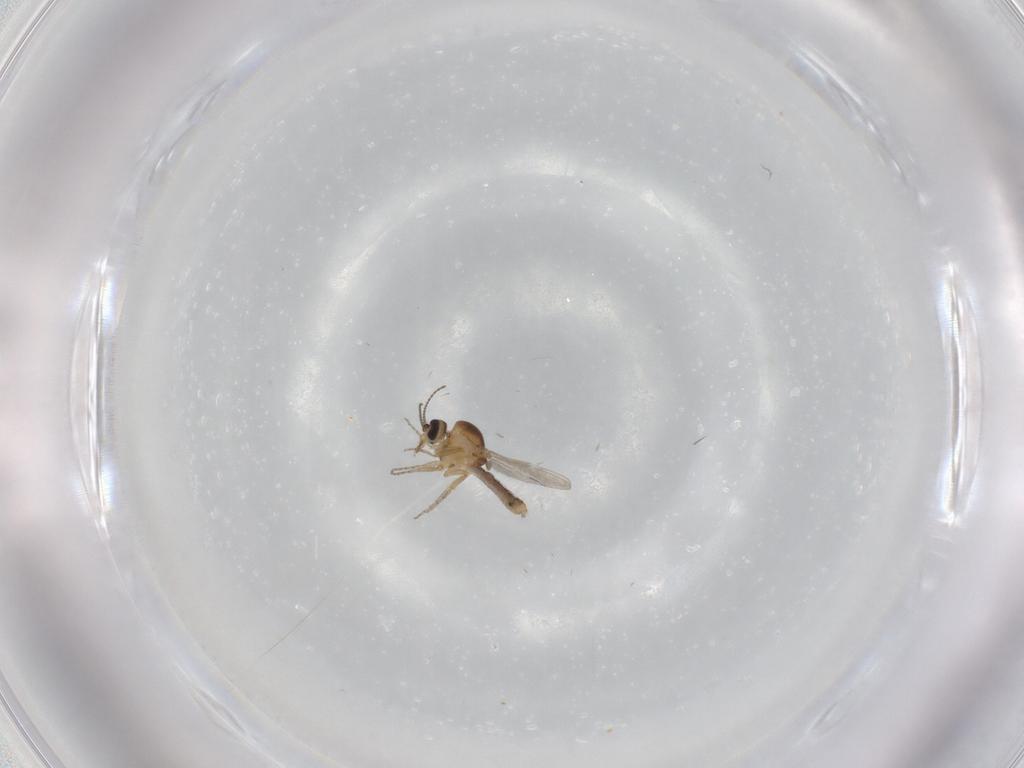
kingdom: Animalia
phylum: Arthropoda
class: Insecta
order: Diptera
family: Ceratopogonidae
